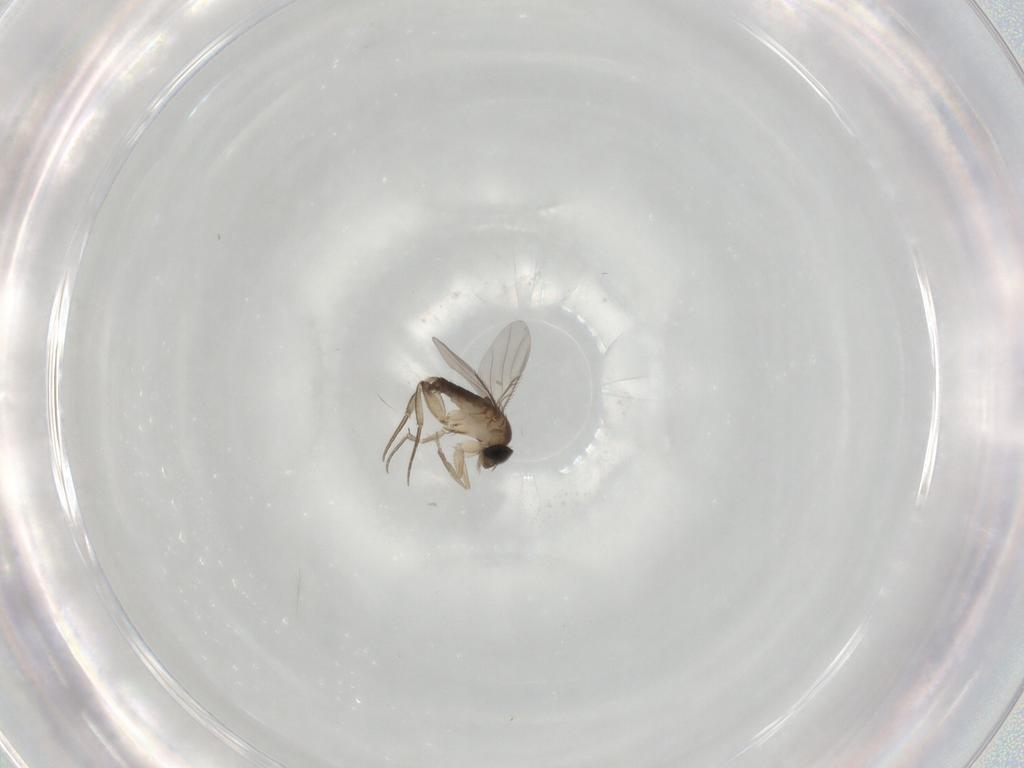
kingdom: Animalia
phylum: Arthropoda
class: Insecta
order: Diptera
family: Phoridae
